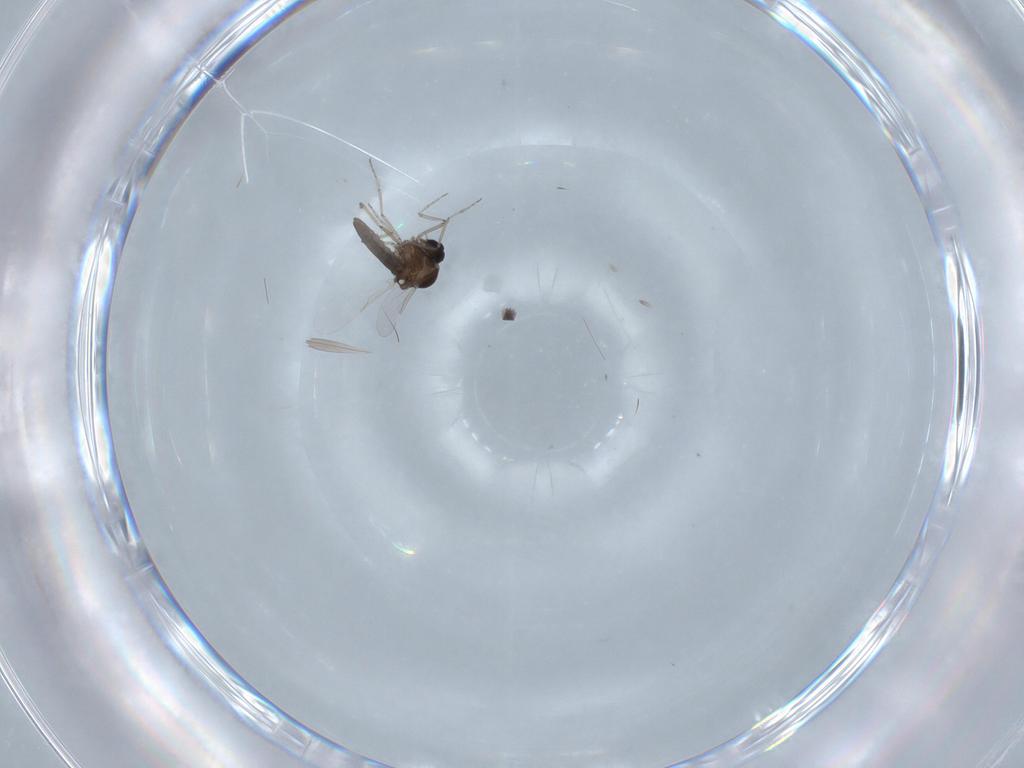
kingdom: Animalia
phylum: Arthropoda
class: Insecta
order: Diptera
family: Ceratopogonidae
